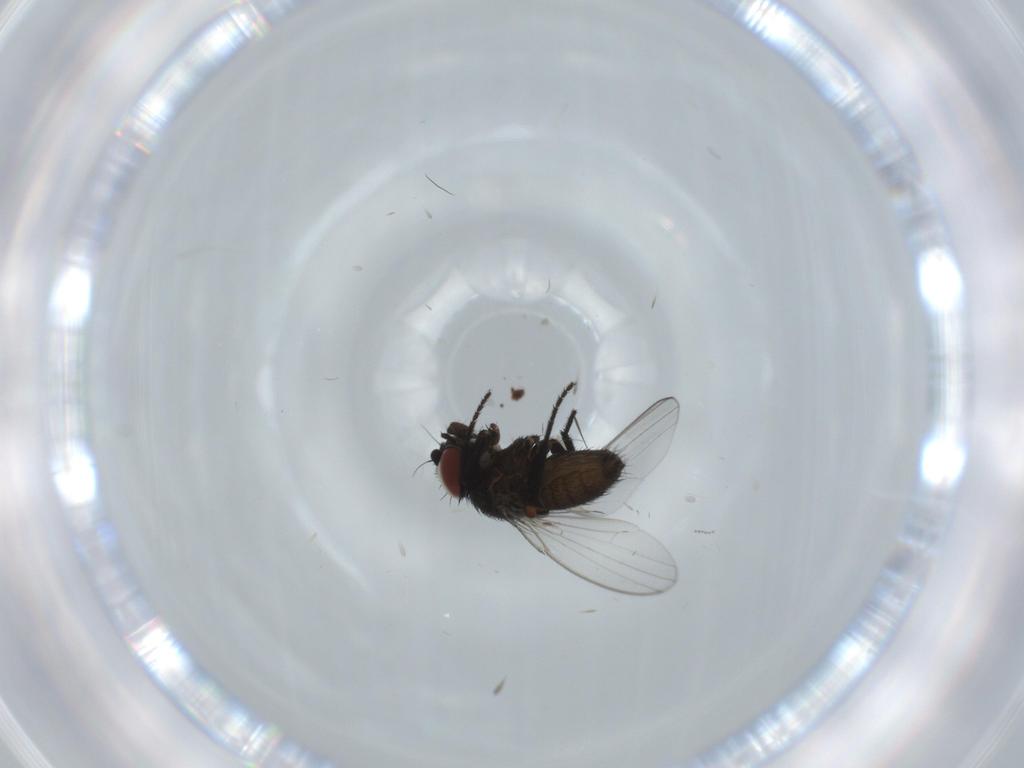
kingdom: Animalia
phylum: Arthropoda
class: Insecta
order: Diptera
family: Milichiidae
